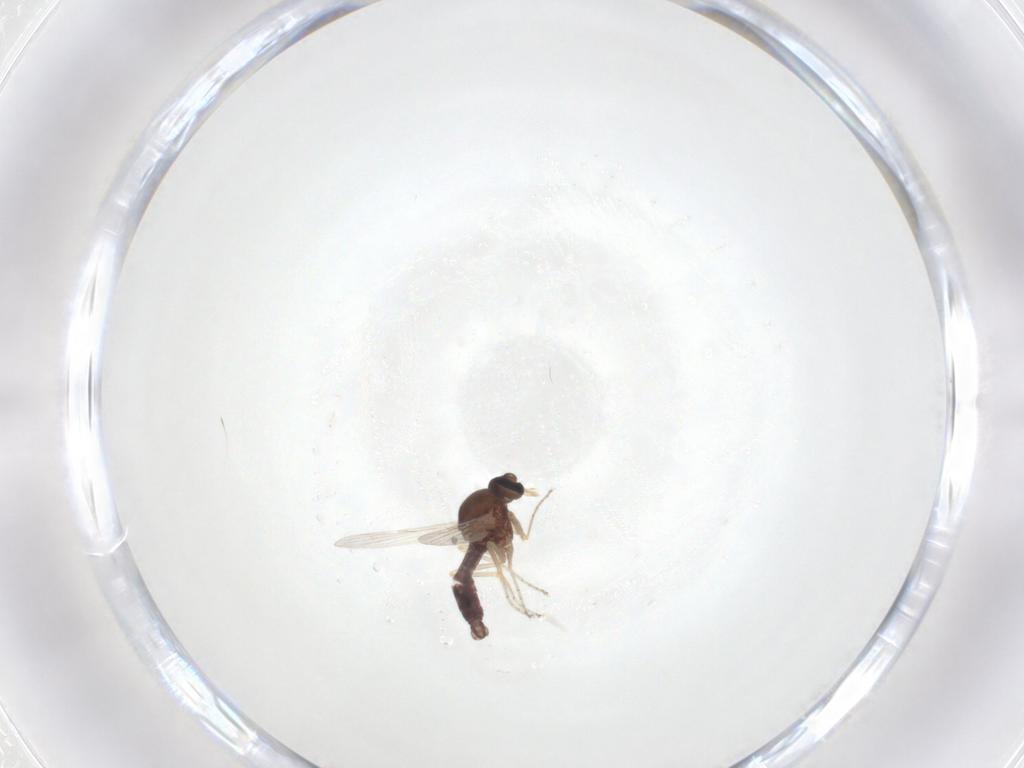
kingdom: Animalia
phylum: Arthropoda
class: Insecta
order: Diptera
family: Ceratopogonidae
